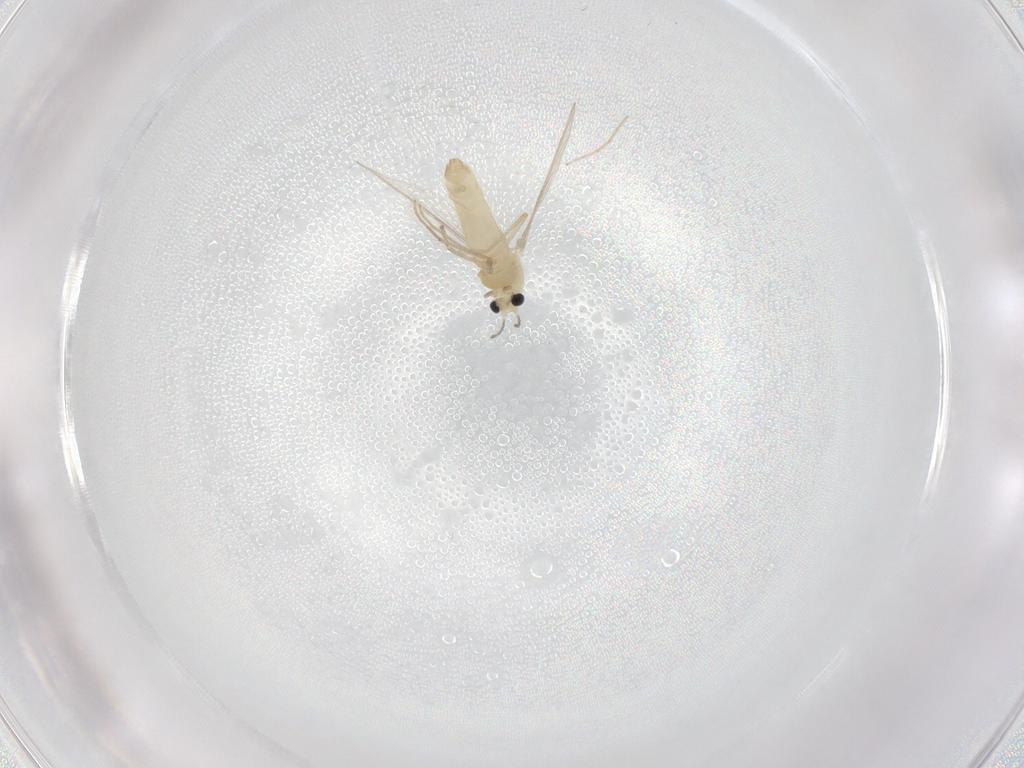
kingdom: Animalia
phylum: Arthropoda
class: Insecta
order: Diptera
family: Chironomidae
